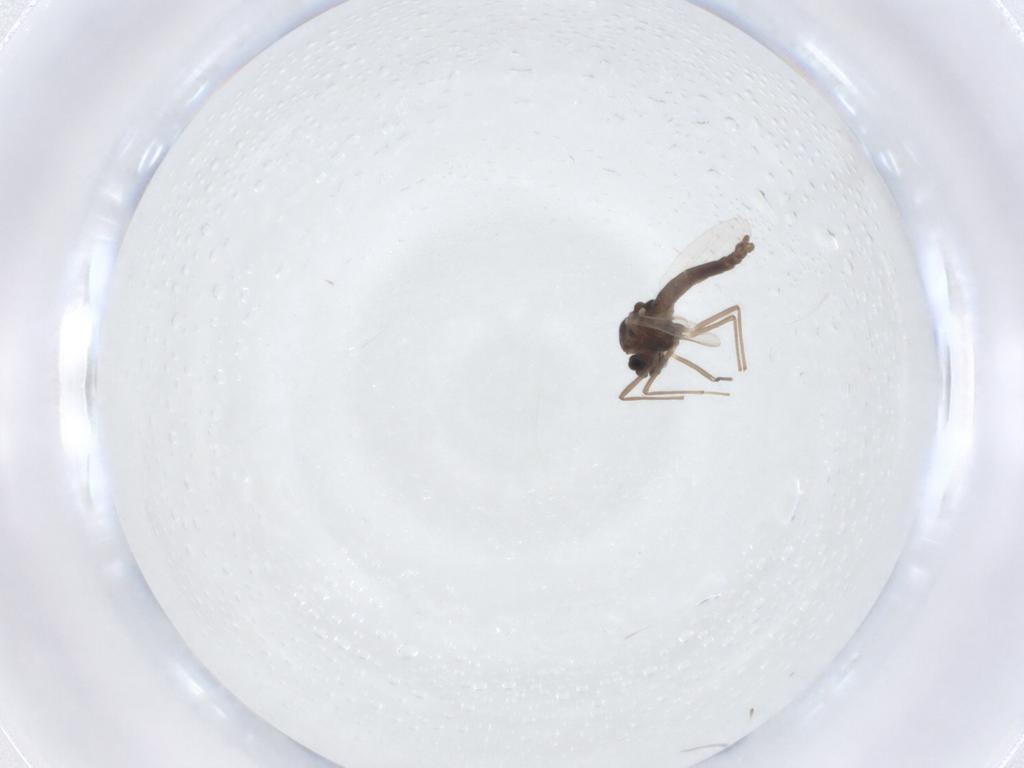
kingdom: Animalia
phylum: Arthropoda
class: Insecta
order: Diptera
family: Chironomidae
